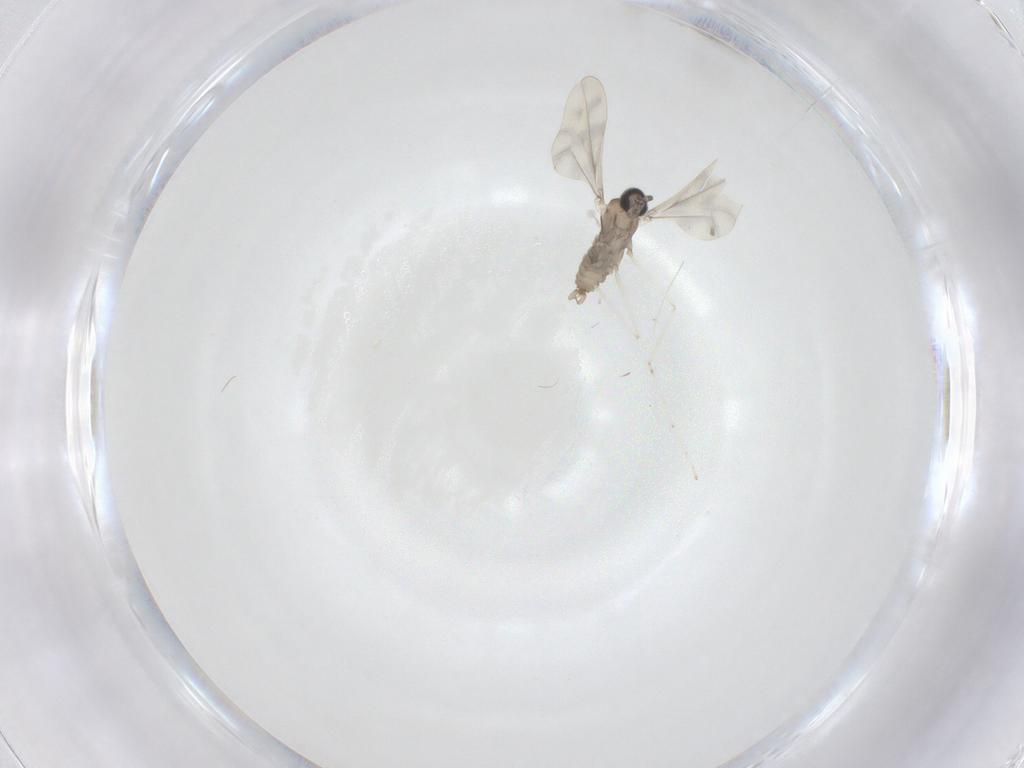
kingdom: Animalia
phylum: Arthropoda
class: Insecta
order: Diptera
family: Cecidomyiidae
